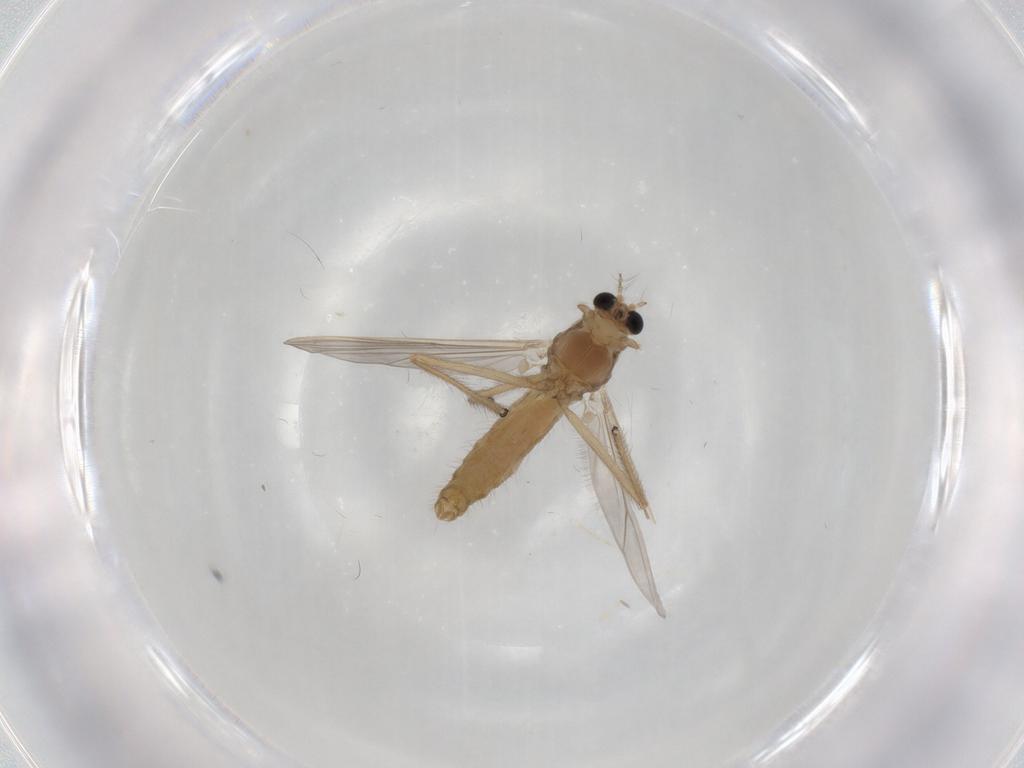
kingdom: Animalia
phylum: Arthropoda
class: Insecta
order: Diptera
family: Chironomidae
